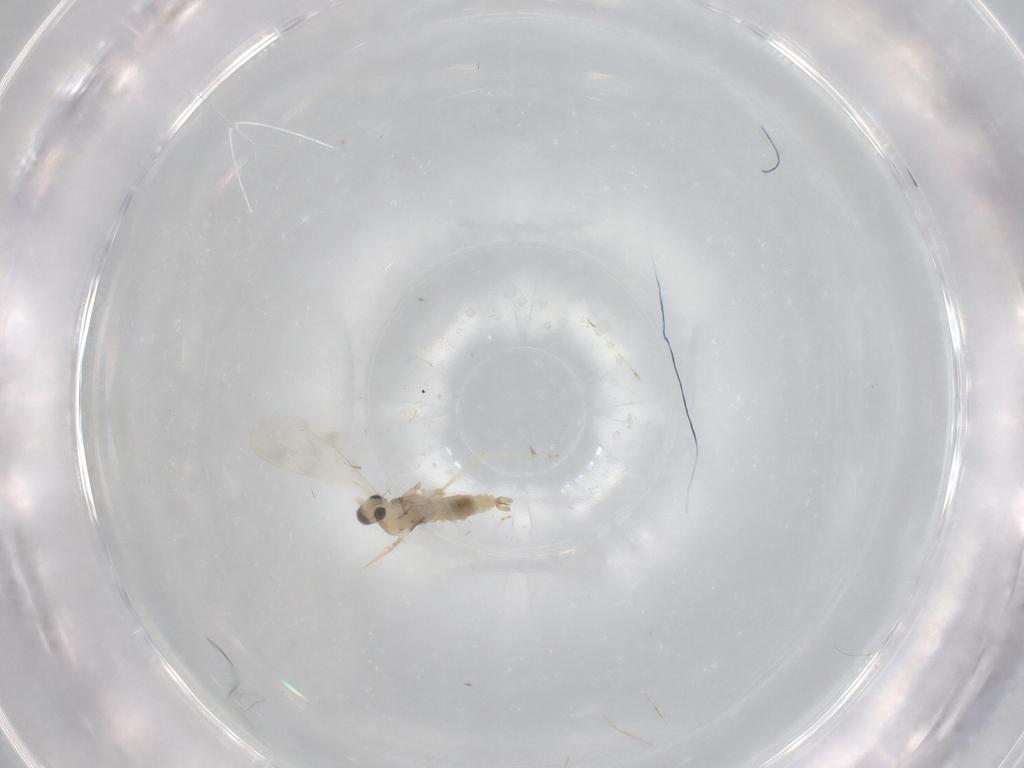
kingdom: Animalia
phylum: Arthropoda
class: Insecta
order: Diptera
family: Cecidomyiidae
